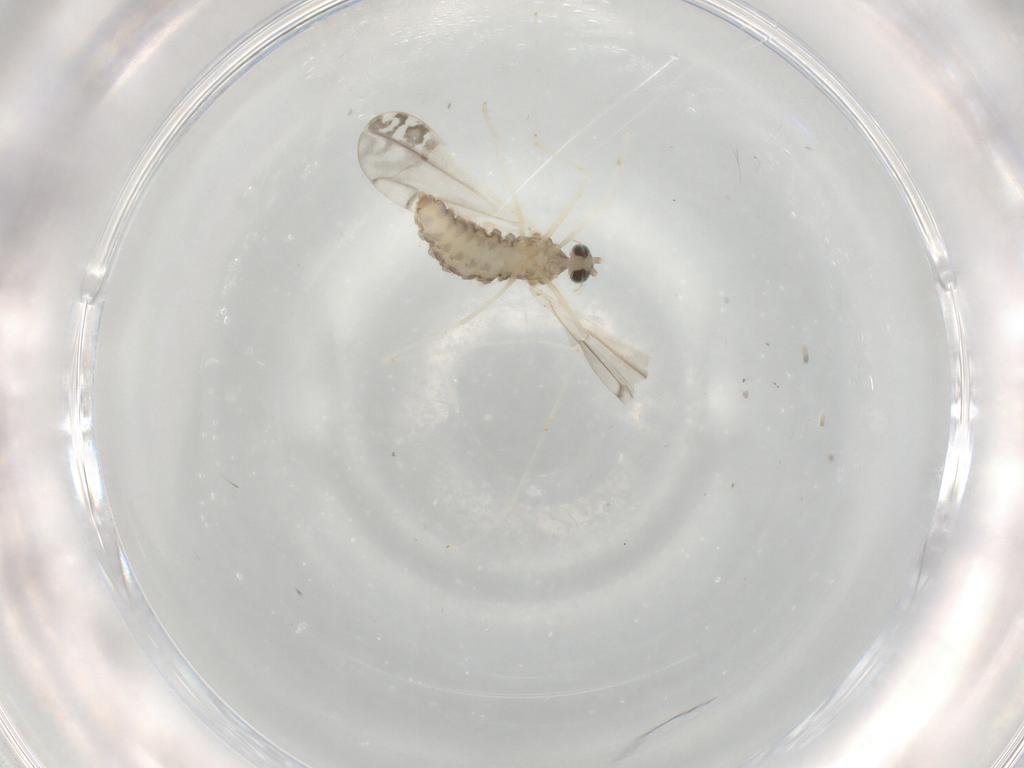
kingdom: Animalia
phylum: Arthropoda
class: Insecta
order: Diptera
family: Cecidomyiidae
